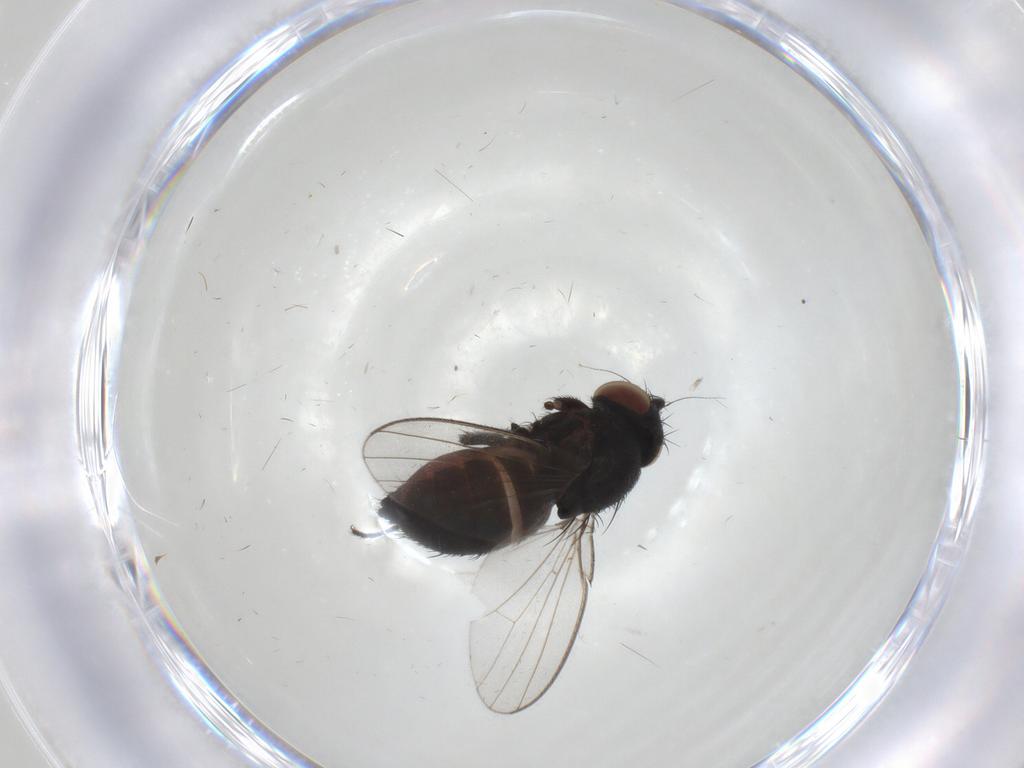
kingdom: Animalia
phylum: Arthropoda
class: Insecta
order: Diptera
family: Milichiidae
